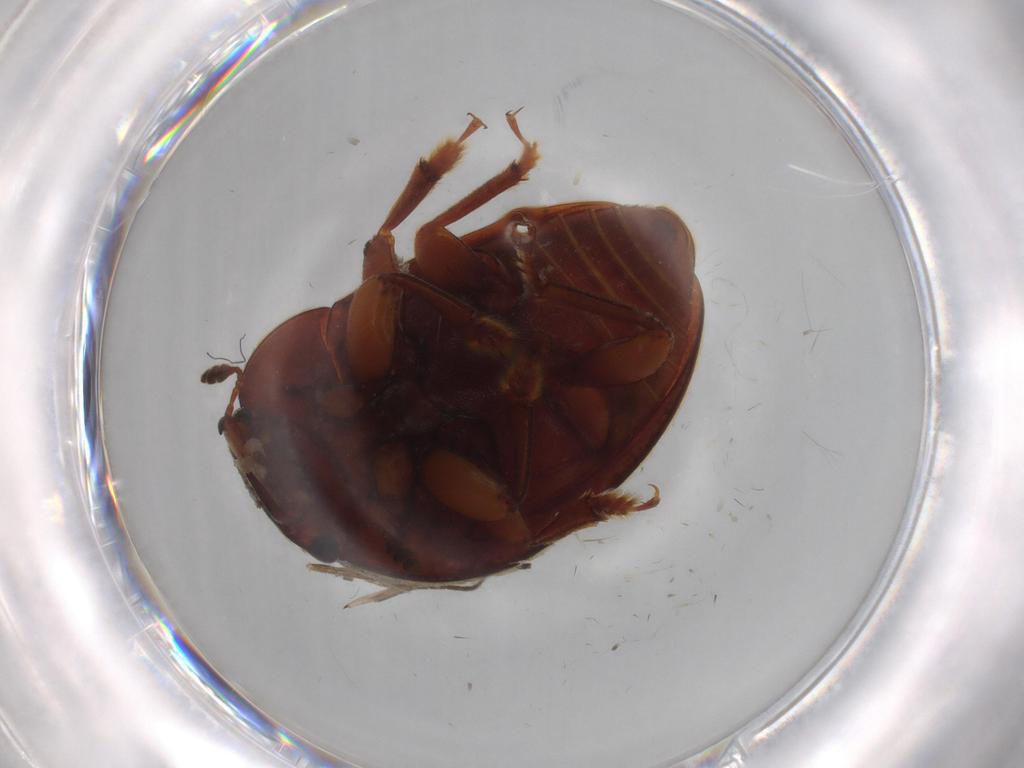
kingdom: Animalia
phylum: Arthropoda
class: Insecta
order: Coleoptera
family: Nitidulidae
